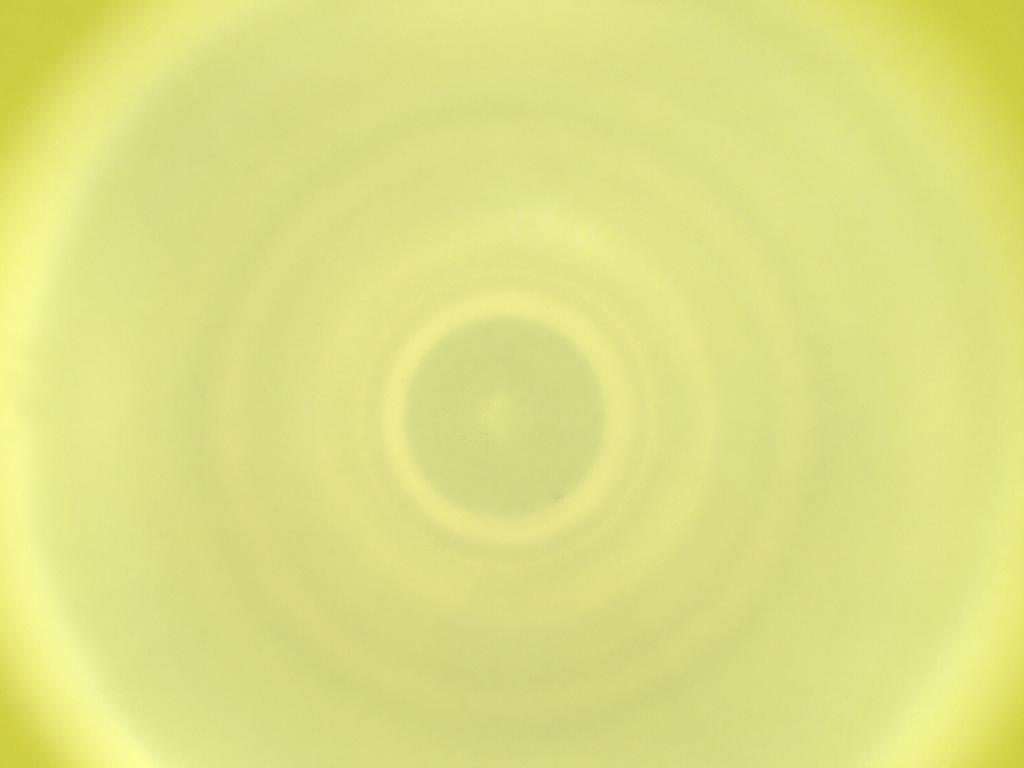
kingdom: Animalia
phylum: Arthropoda
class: Insecta
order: Diptera
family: Cecidomyiidae
